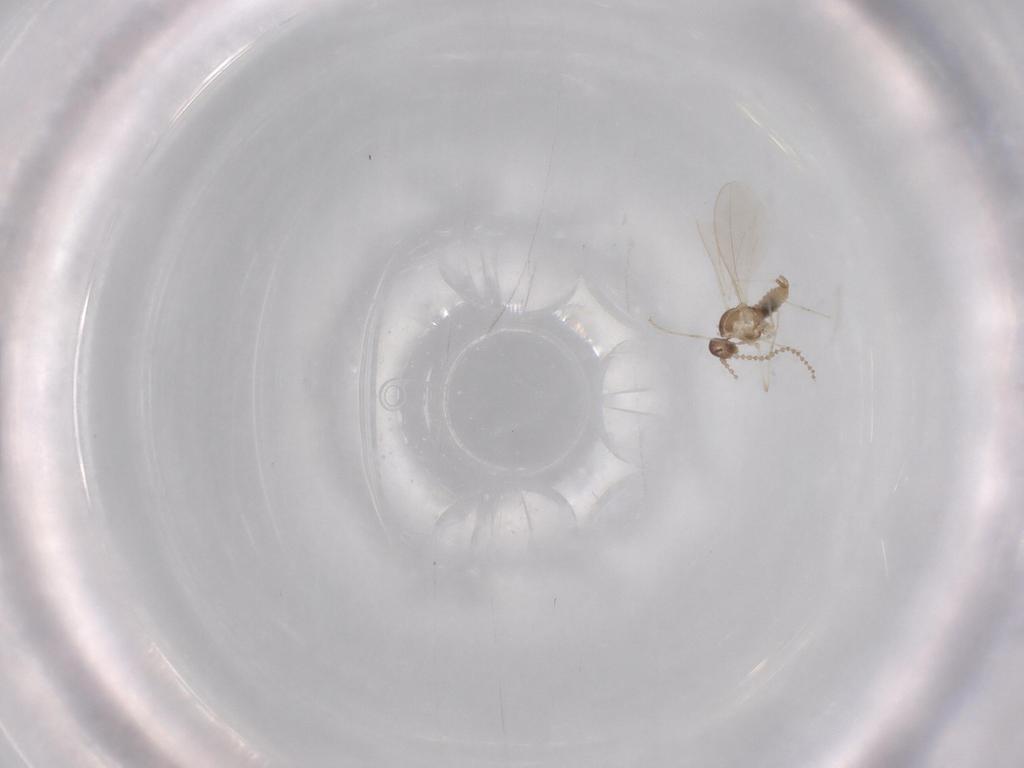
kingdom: Animalia
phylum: Arthropoda
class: Insecta
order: Diptera
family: Cecidomyiidae
